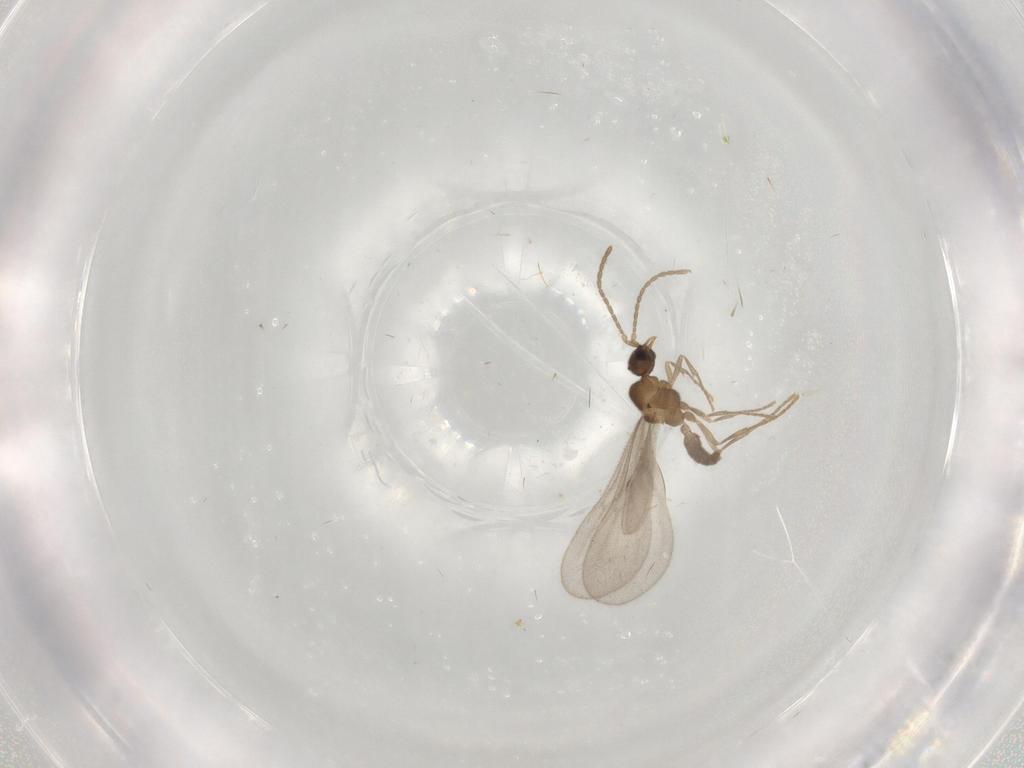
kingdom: Animalia
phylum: Arthropoda
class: Insecta
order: Hymenoptera
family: Formicidae
